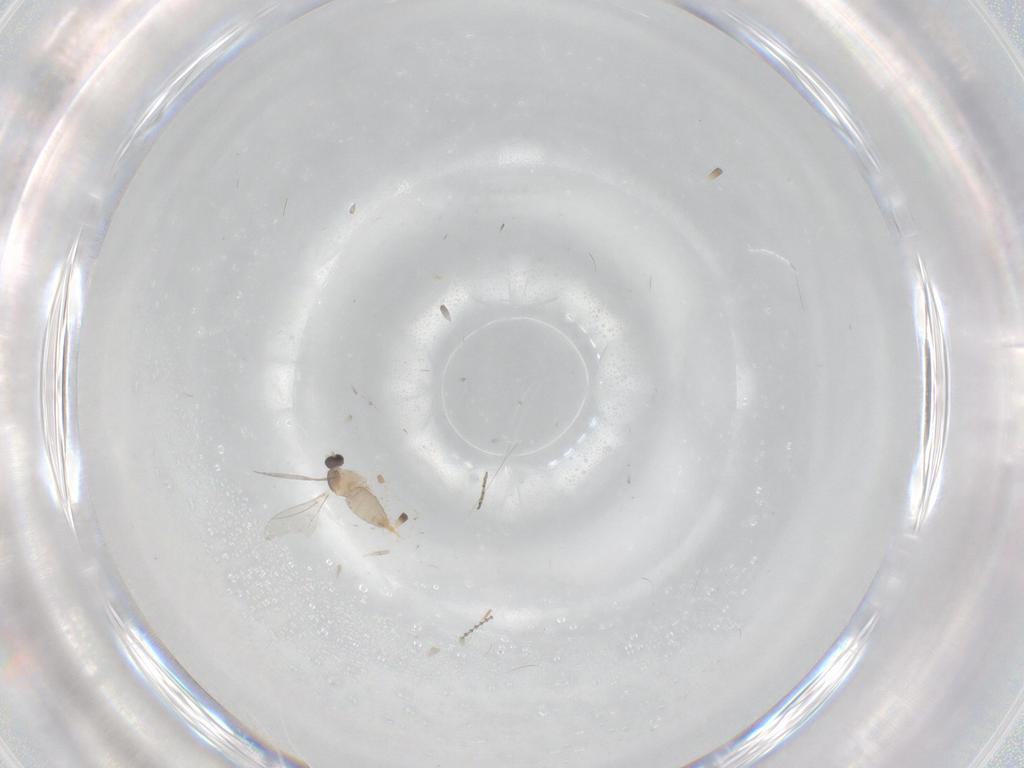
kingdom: Animalia
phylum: Arthropoda
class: Insecta
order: Diptera
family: Cecidomyiidae
